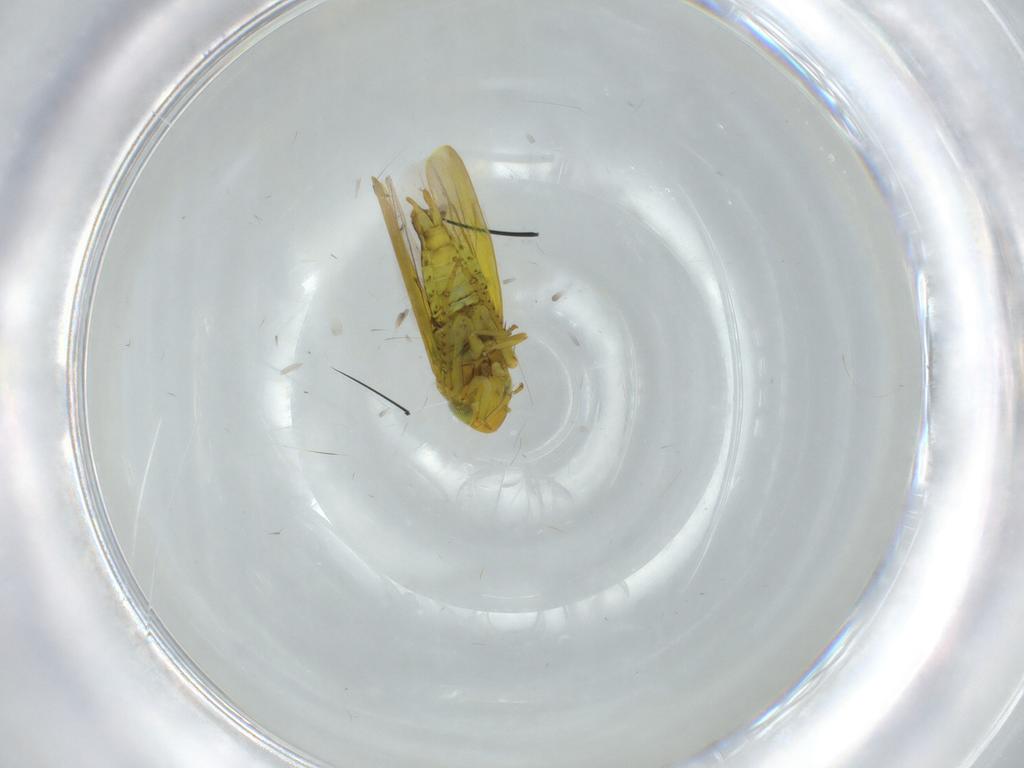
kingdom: Animalia
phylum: Arthropoda
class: Insecta
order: Hemiptera
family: Cicadellidae
